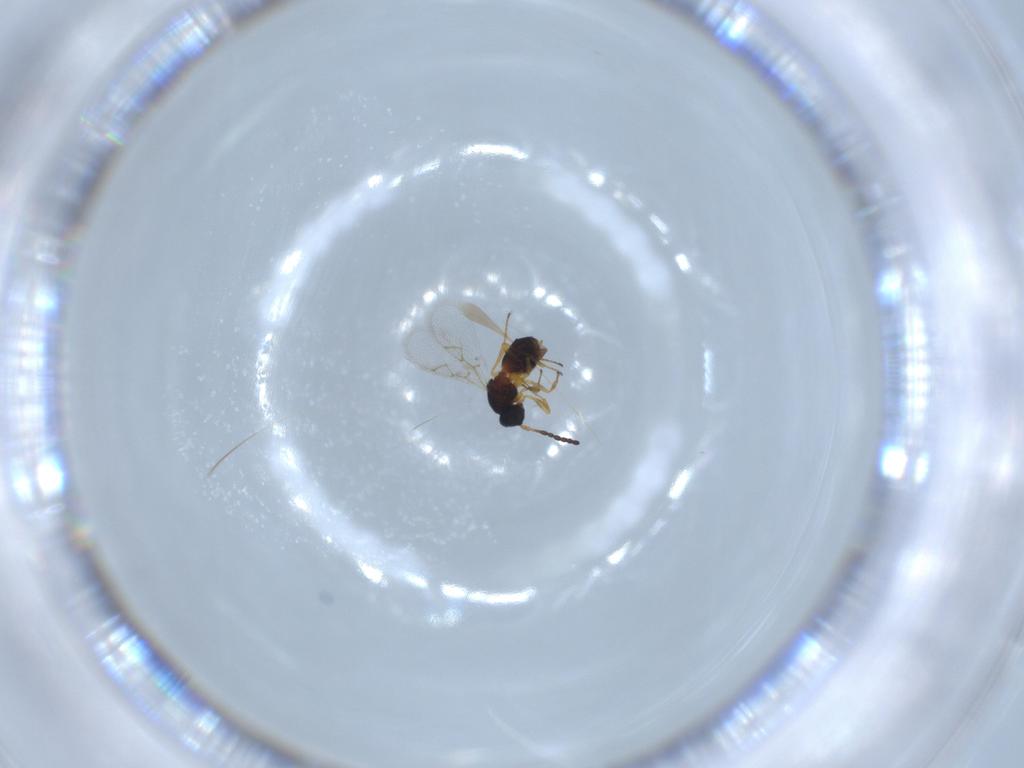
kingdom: Animalia
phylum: Arthropoda
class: Insecta
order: Hymenoptera
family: Figitidae
